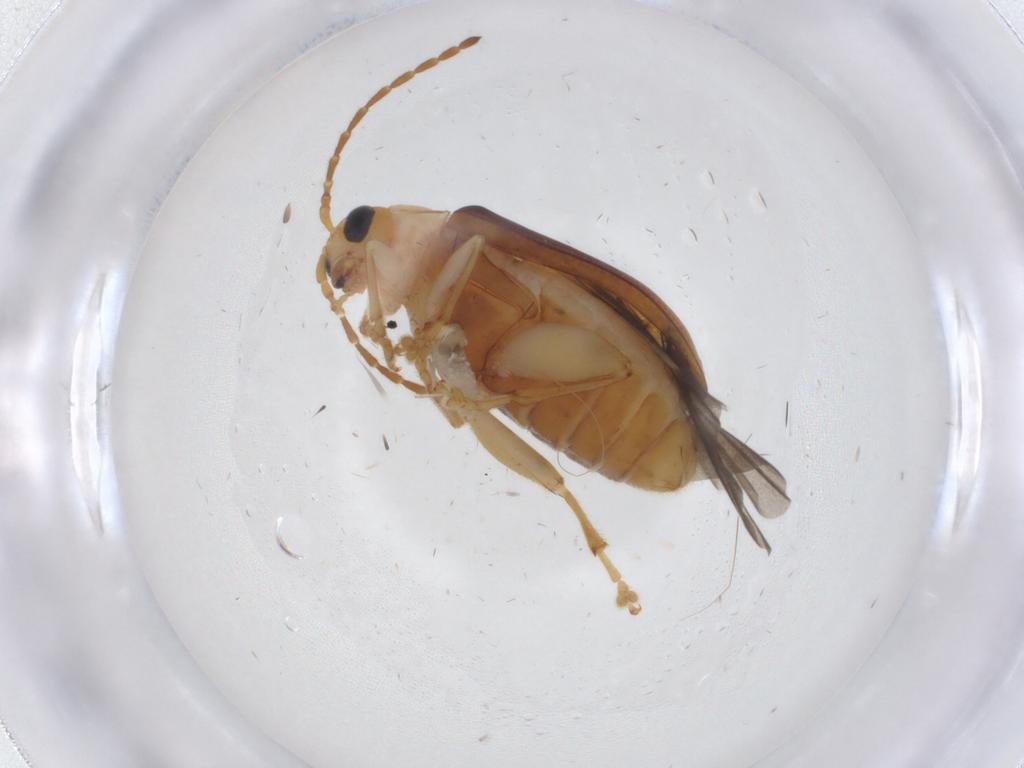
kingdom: Animalia
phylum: Arthropoda
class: Insecta
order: Coleoptera
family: Chrysomelidae
